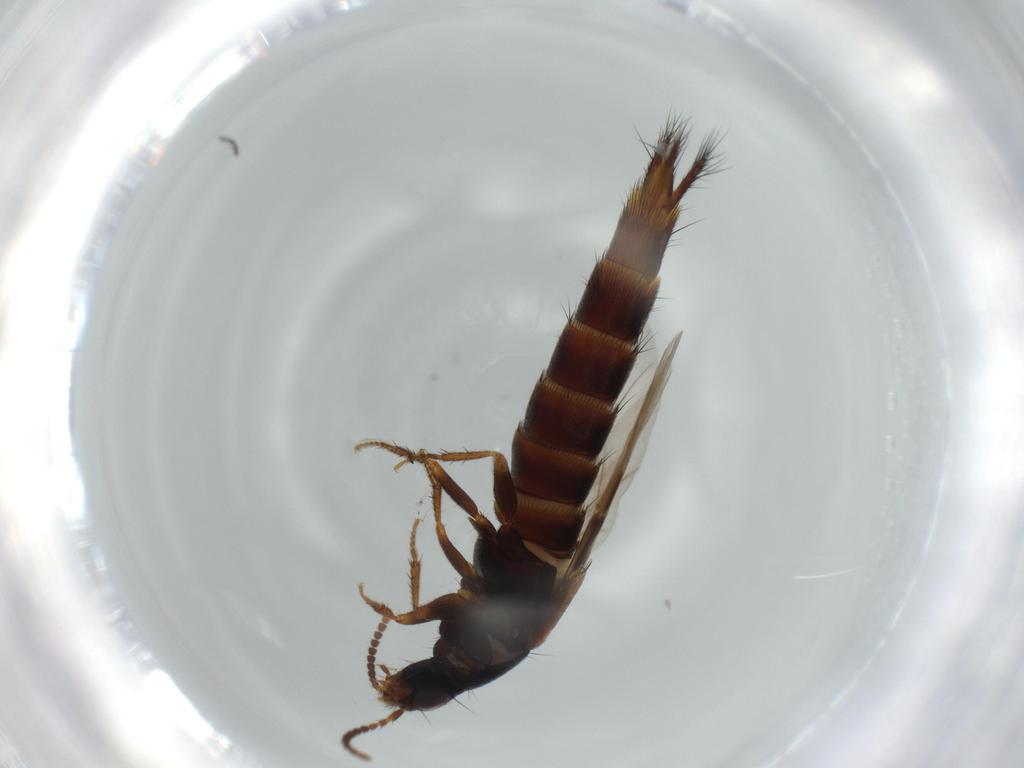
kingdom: Animalia
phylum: Arthropoda
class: Insecta
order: Coleoptera
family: Staphylinidae
